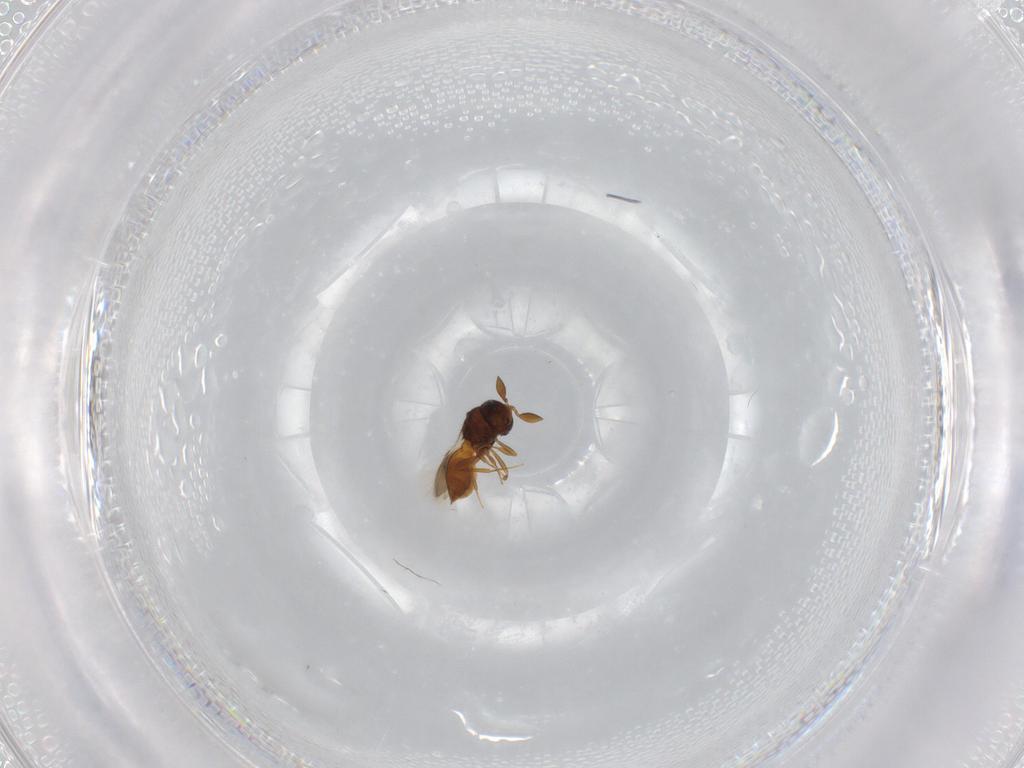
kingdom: Animalia
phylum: Arthropoda
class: Insecta
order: Hymenoptera
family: Scelionidae
